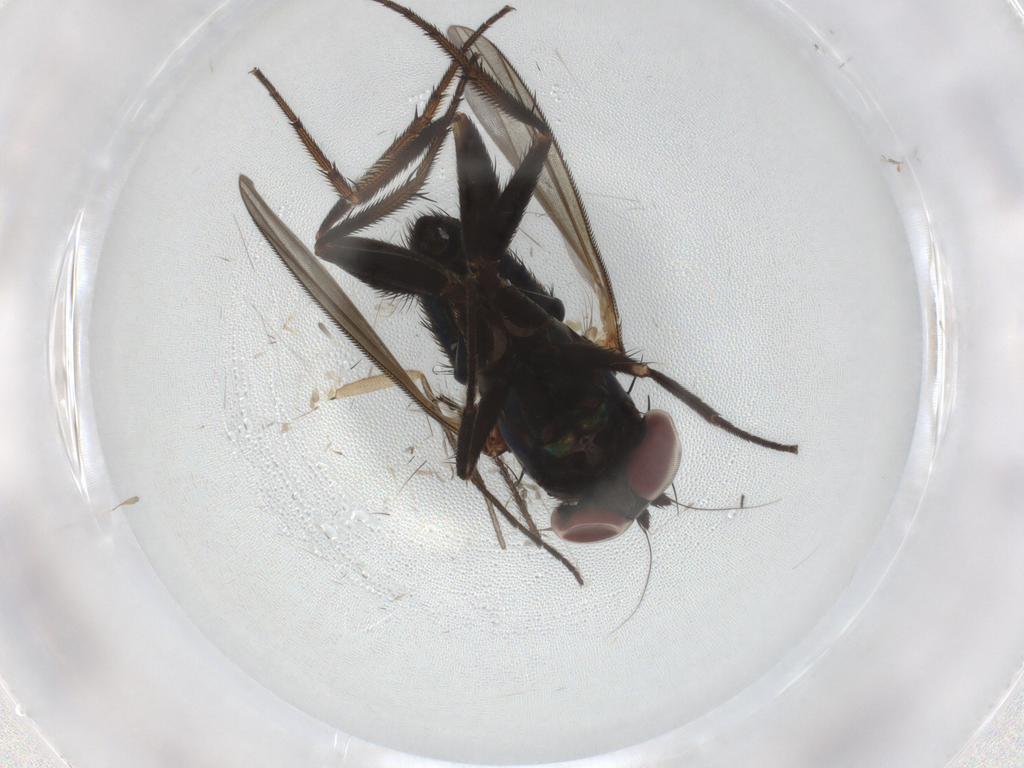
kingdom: Animalia
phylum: Arthropoda
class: Insecta
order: Diptera
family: Dolichopodidae
